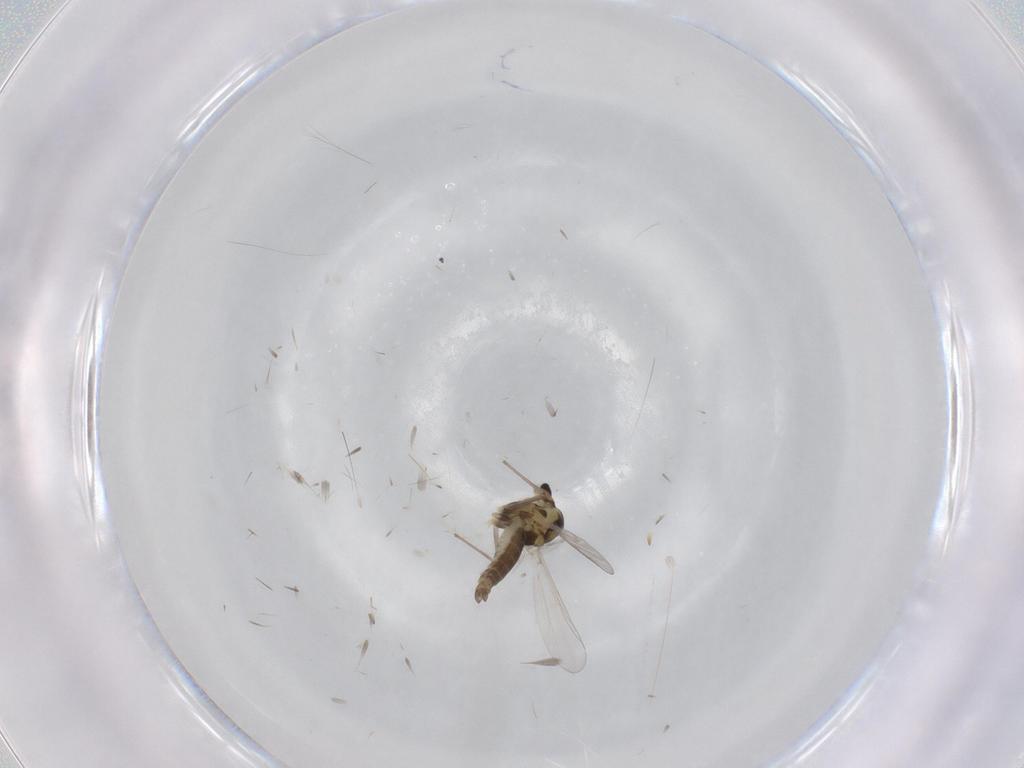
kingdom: Animalia
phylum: Arthropoda
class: Insecta
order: Diptera
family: Chironomidae
